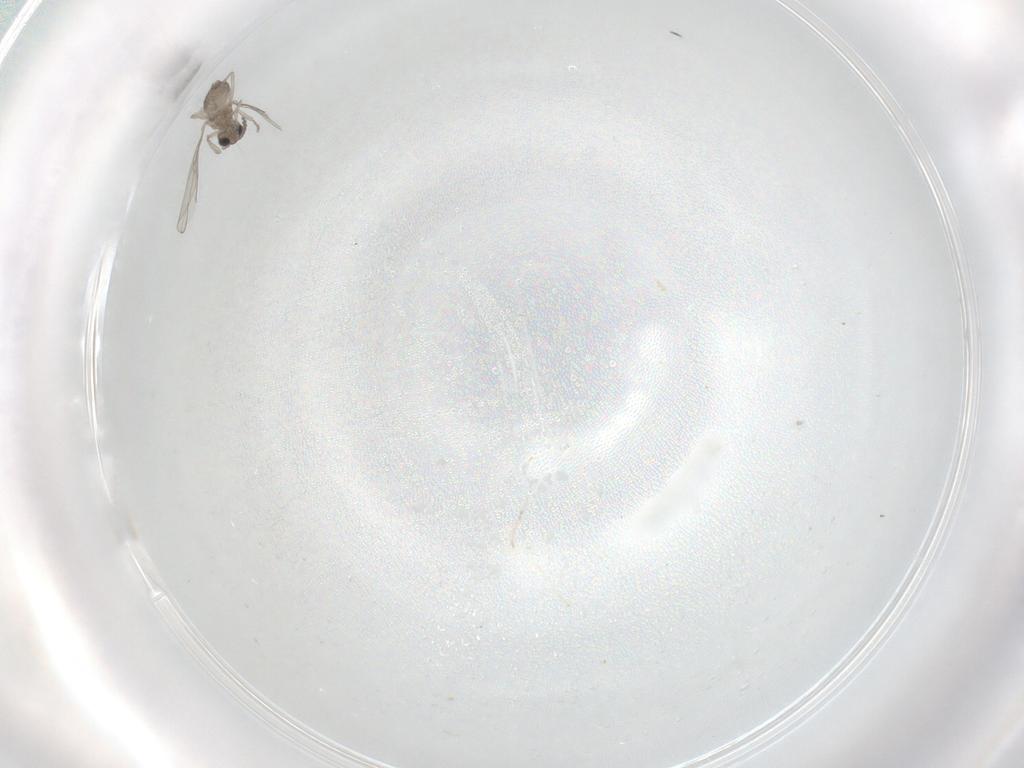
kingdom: Animalia
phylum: Arthropoda
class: Insecta
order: Diptera
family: Cecidomyiidae
